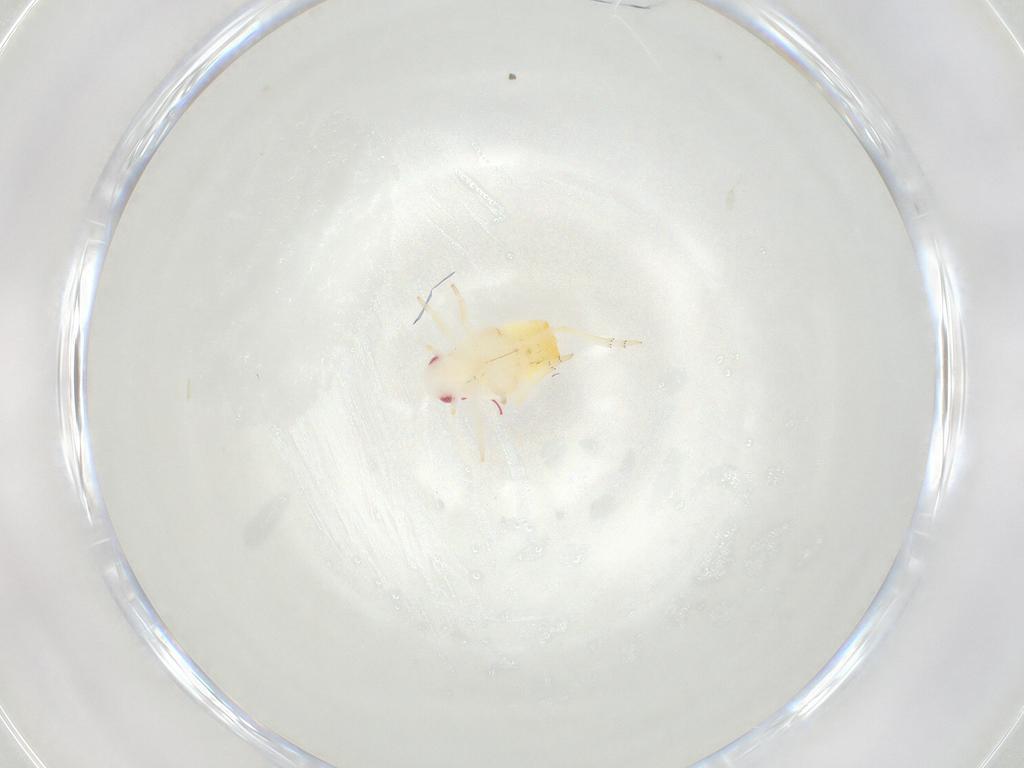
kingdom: Animalia
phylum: Arthropoda
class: Insecta
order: Hemiptera
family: Flatidae
